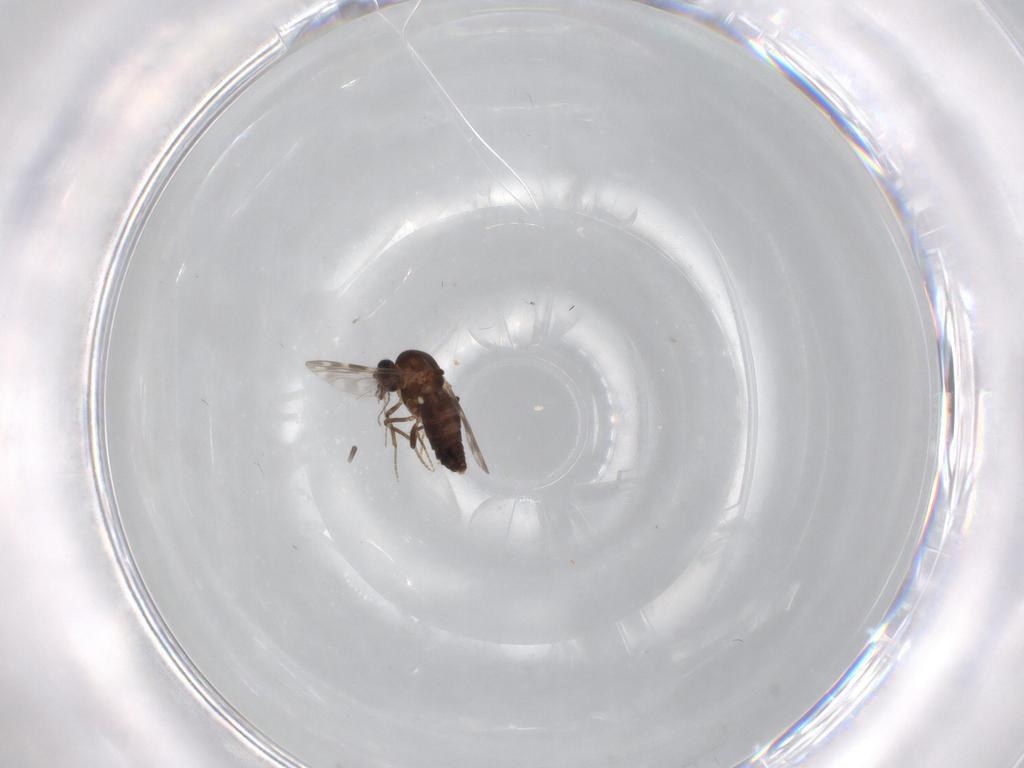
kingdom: Animalia
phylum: Arthropoda
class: Insecta
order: Diptera
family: Ceratopogonidae
